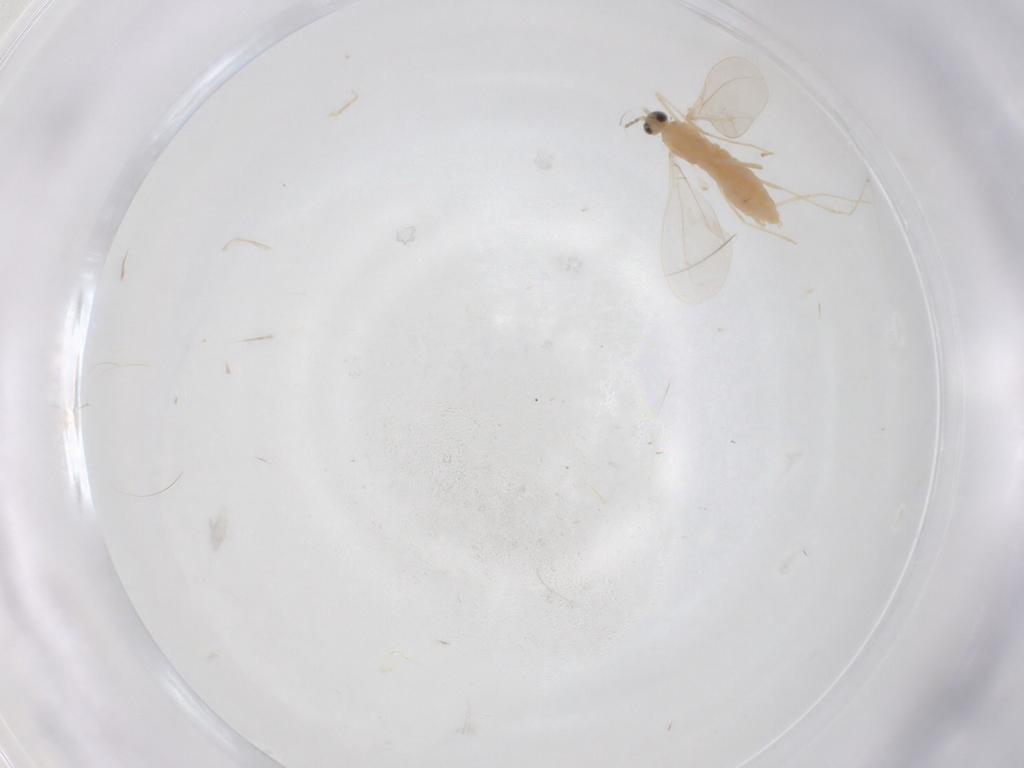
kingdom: Animalia
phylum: Arthropoda
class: Insecta
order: Diptera
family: Cecidomyiidae
